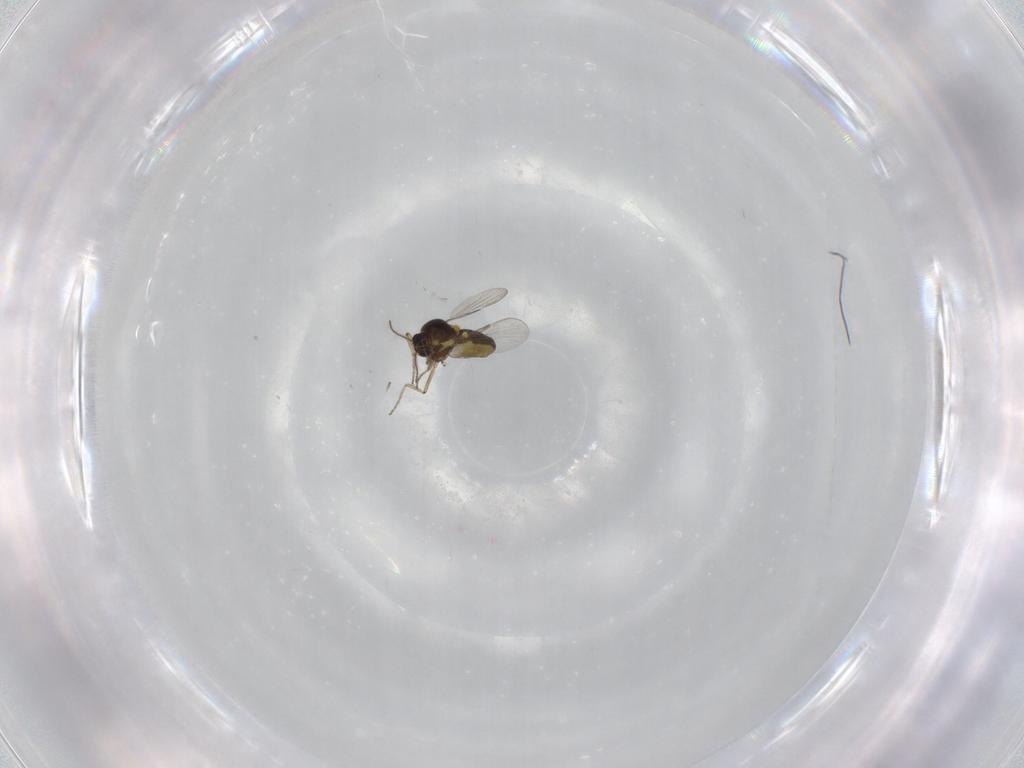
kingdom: Animalia
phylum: Arthropoda
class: Insecta
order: Diptera
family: Ceratopogonidae
